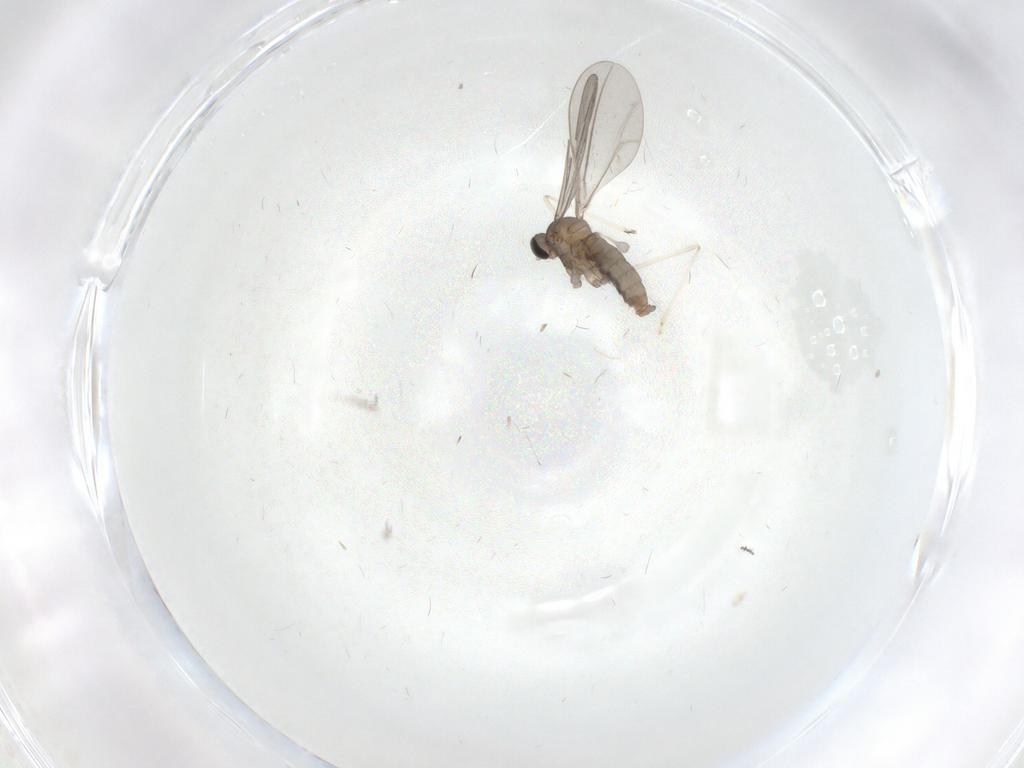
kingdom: Animalia
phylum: Arthropoda
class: Insecta
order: Diptera
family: Cecidomyiidae
